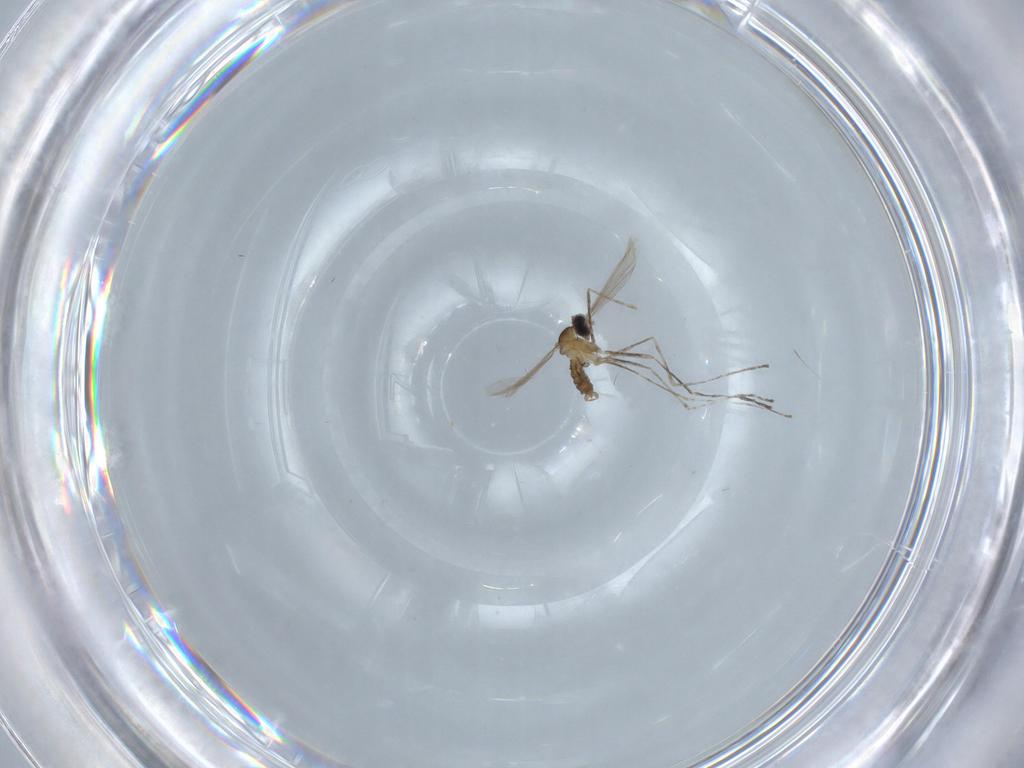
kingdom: Animalia
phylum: Arthropoda
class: Insecta
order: Diptera
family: Cecidomyiidae
